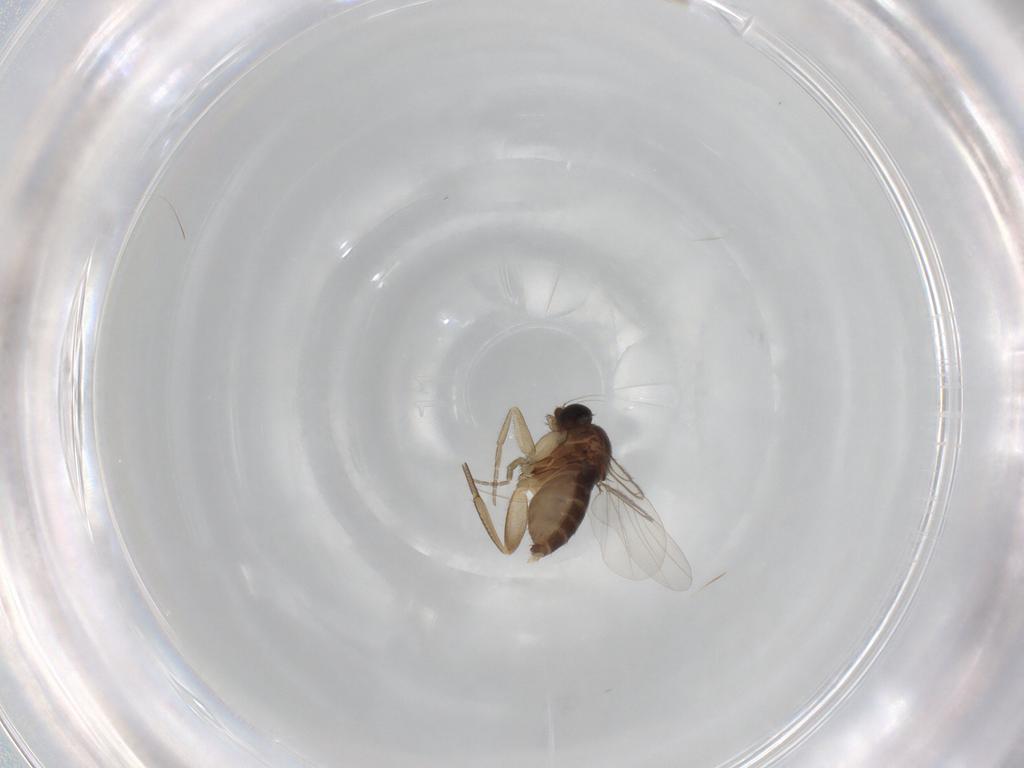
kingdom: Animalia
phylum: Arthropoda
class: Insecta
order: Diptera
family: Phoridae
